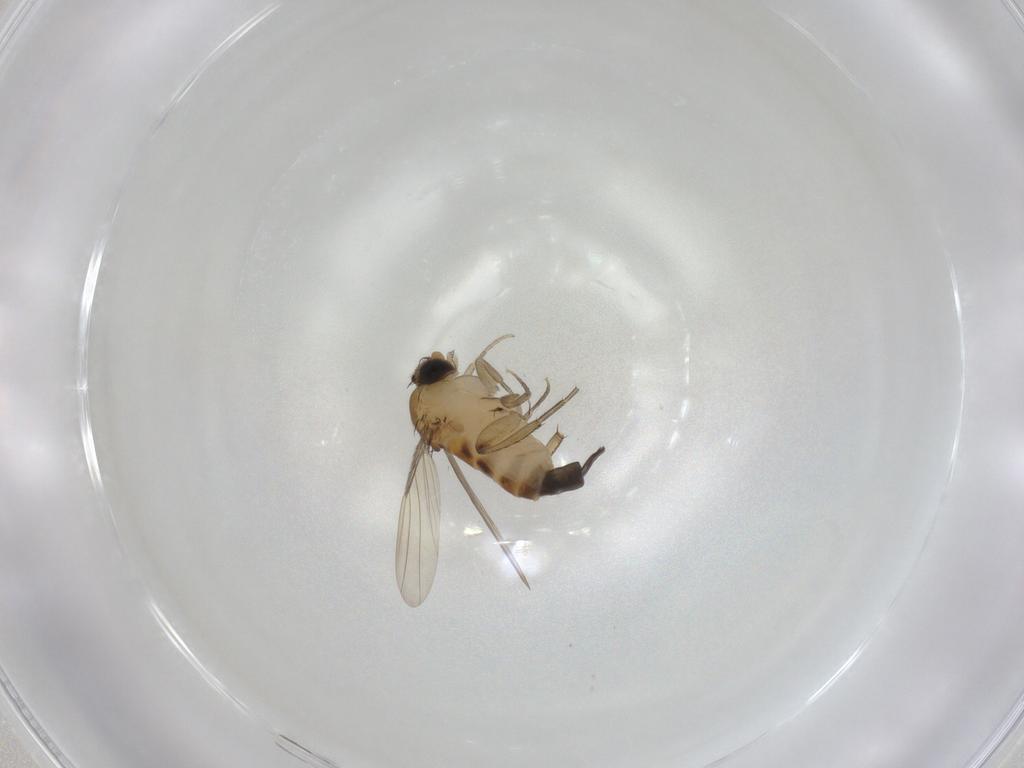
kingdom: Animalia
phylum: Arthropoda
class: Insecta
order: Diptera
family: Phoridae
